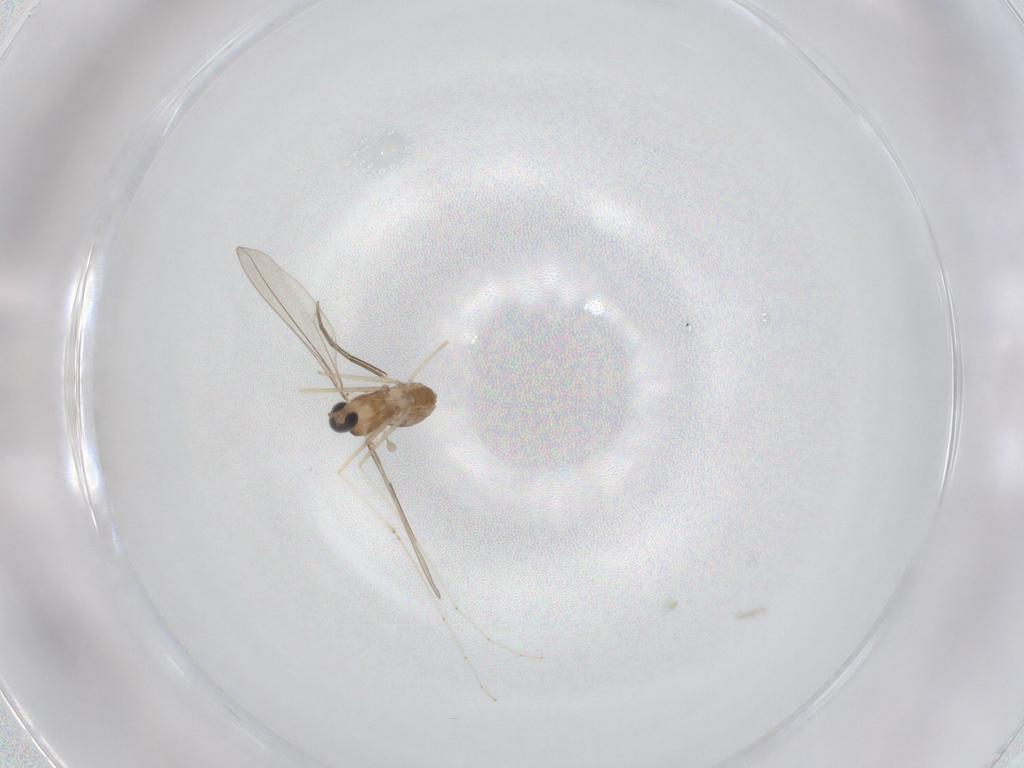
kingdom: Animalia
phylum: Arthropoda
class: Insecta
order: Diptera
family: Cecidomyiidae
